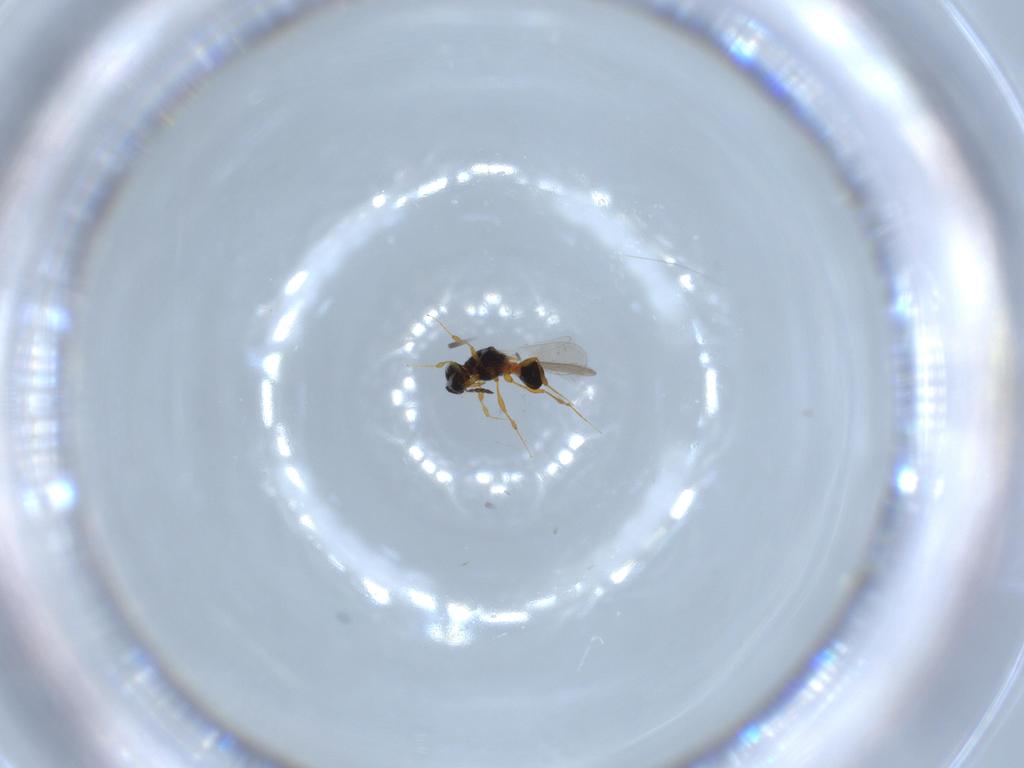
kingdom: Animalia
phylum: Arthropoda
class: Insecta
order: Hymenoptera
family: Platygastridae
